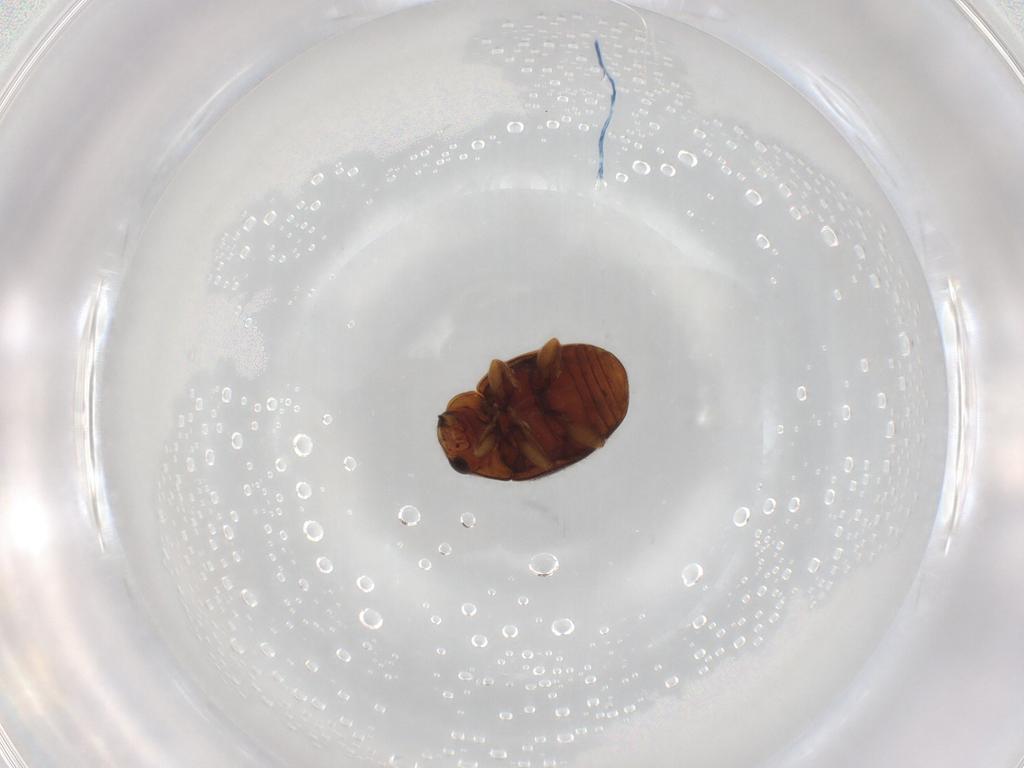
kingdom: Animalia
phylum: Arthropoda
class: Insecta
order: Coleoptera
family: Coccinellidae
